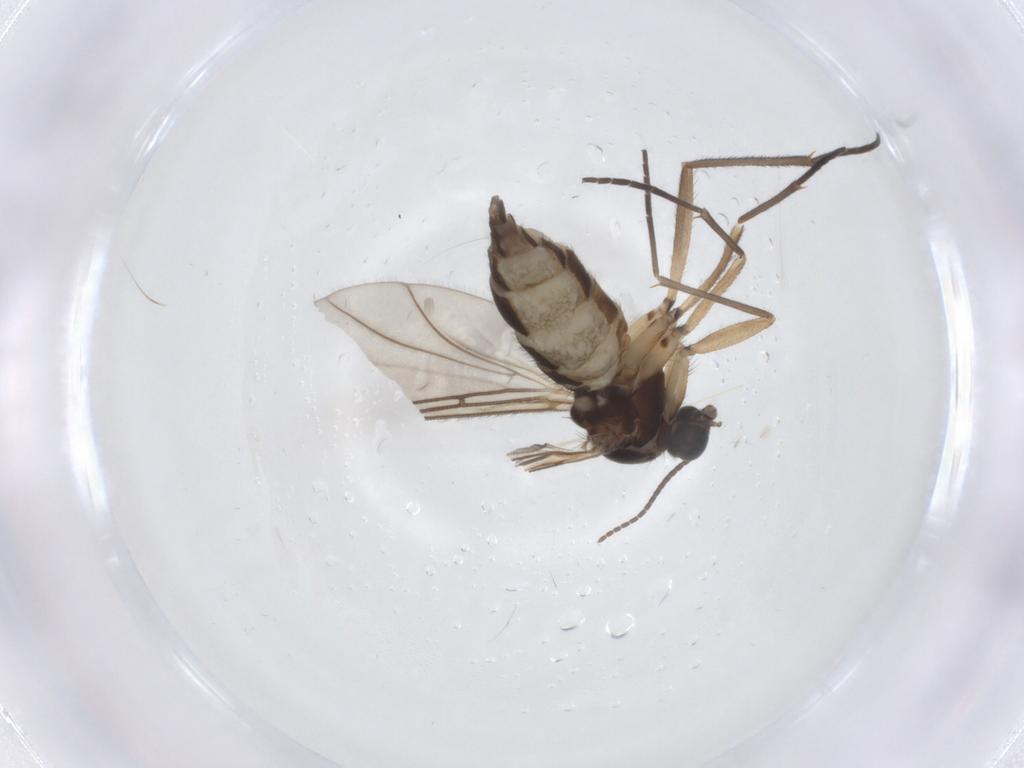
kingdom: Animalia
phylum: Arthropoda
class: Insecta
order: Diptera
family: Sciaridae
